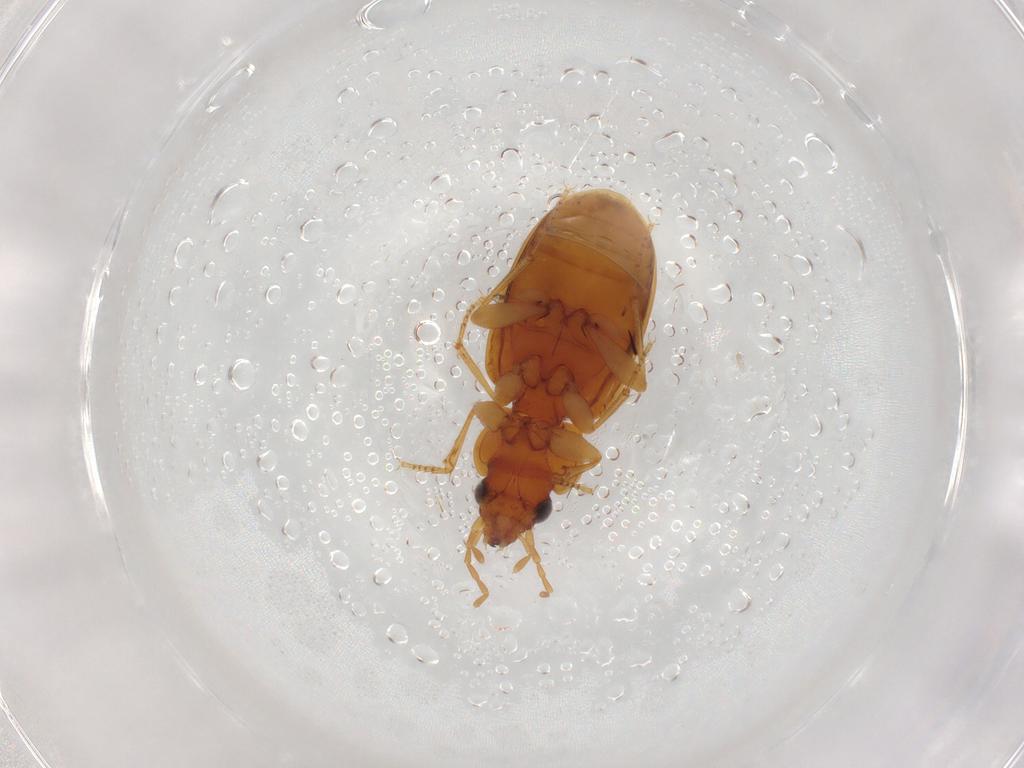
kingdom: Animalia
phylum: Arthropoda
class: Insecta
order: Coleoptera
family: Carabidae
